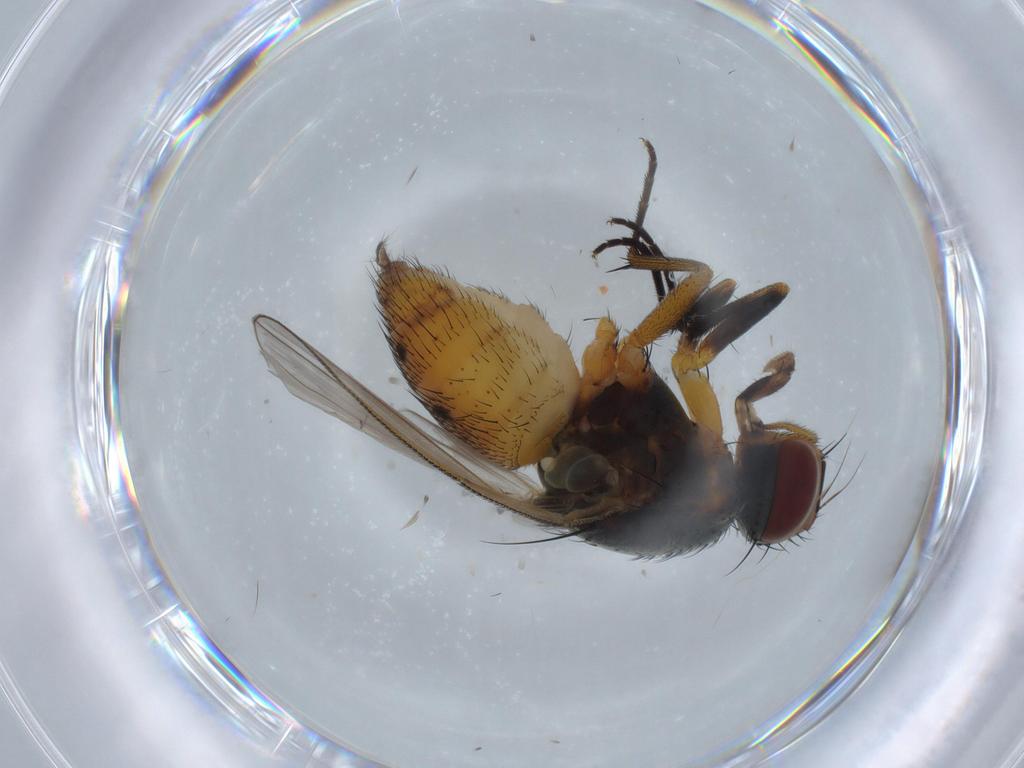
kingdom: Animalia
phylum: Arthropoda
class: Insecta
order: Diptera
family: Muscidae
